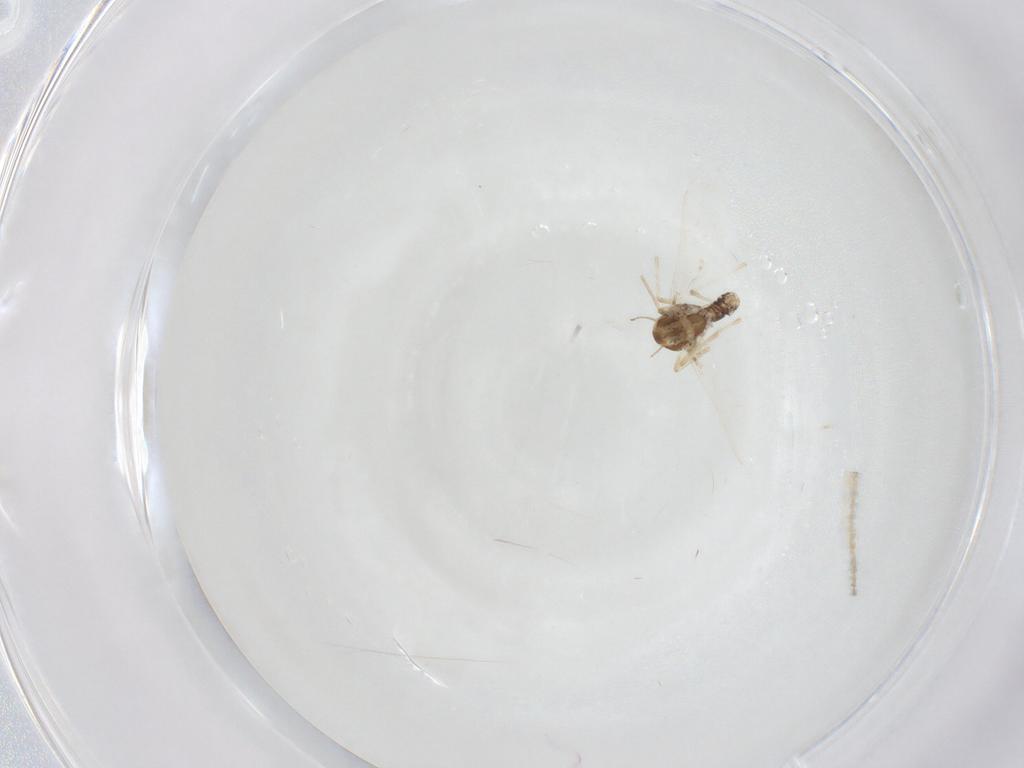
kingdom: Animalia
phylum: Arthropoda
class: Insecta
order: Diptera
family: Chironomidae
